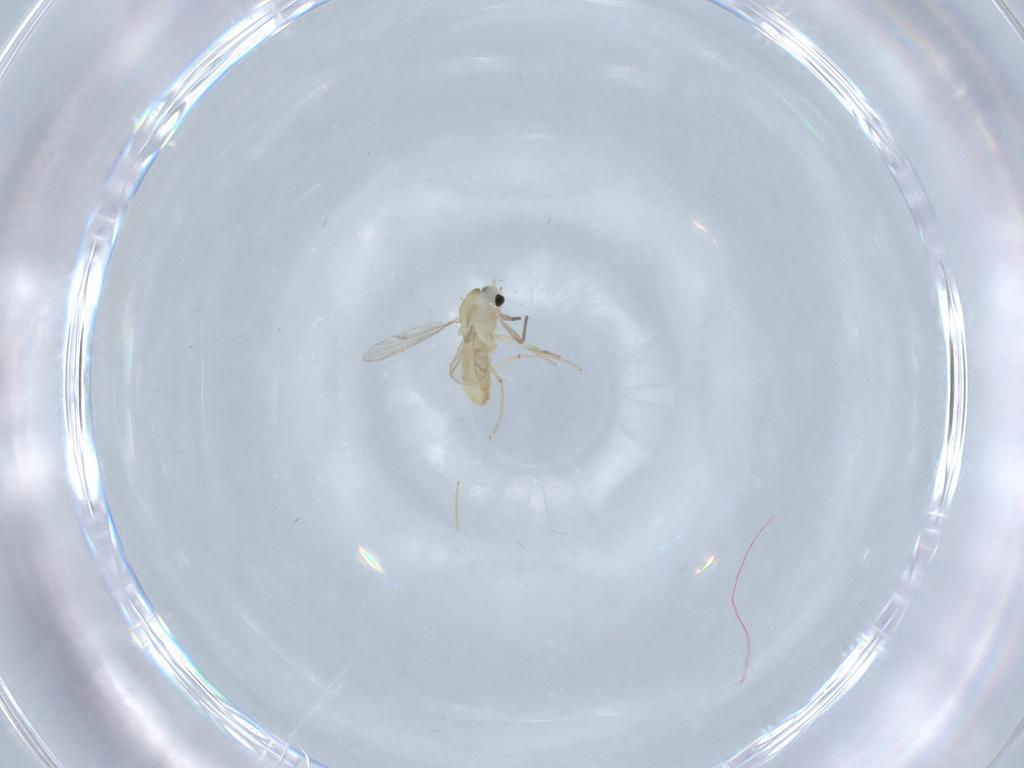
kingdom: Animalia
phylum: Arthropoda
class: Insecta
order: Diptera
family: Chironomidae
